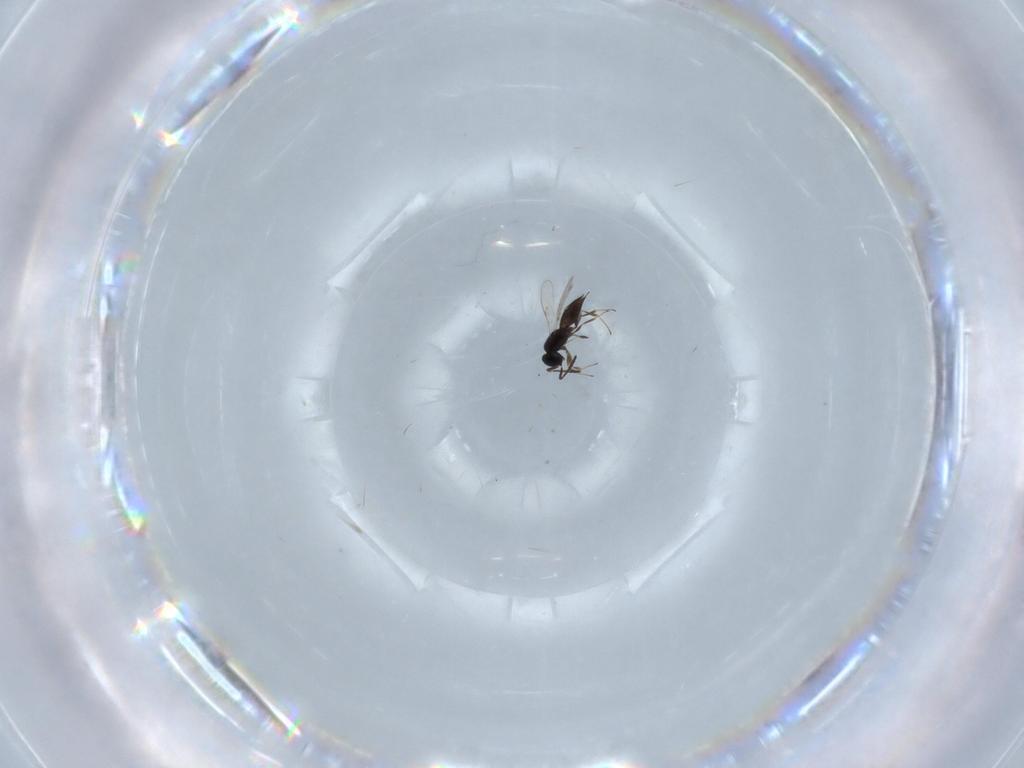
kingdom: Animalia
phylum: Arthropoda
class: Insecta
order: Hymenoptera
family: Scelionidae
